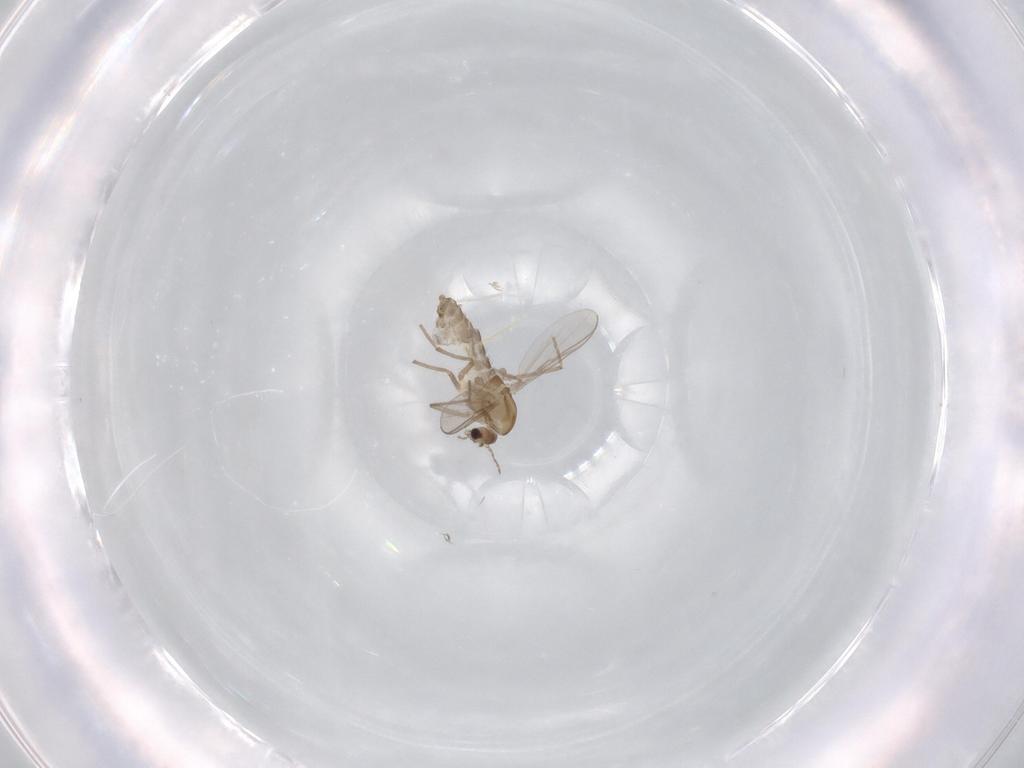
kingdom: Animalia
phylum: Arthropoda
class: Insecta
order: Diptera
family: Chironomidae
